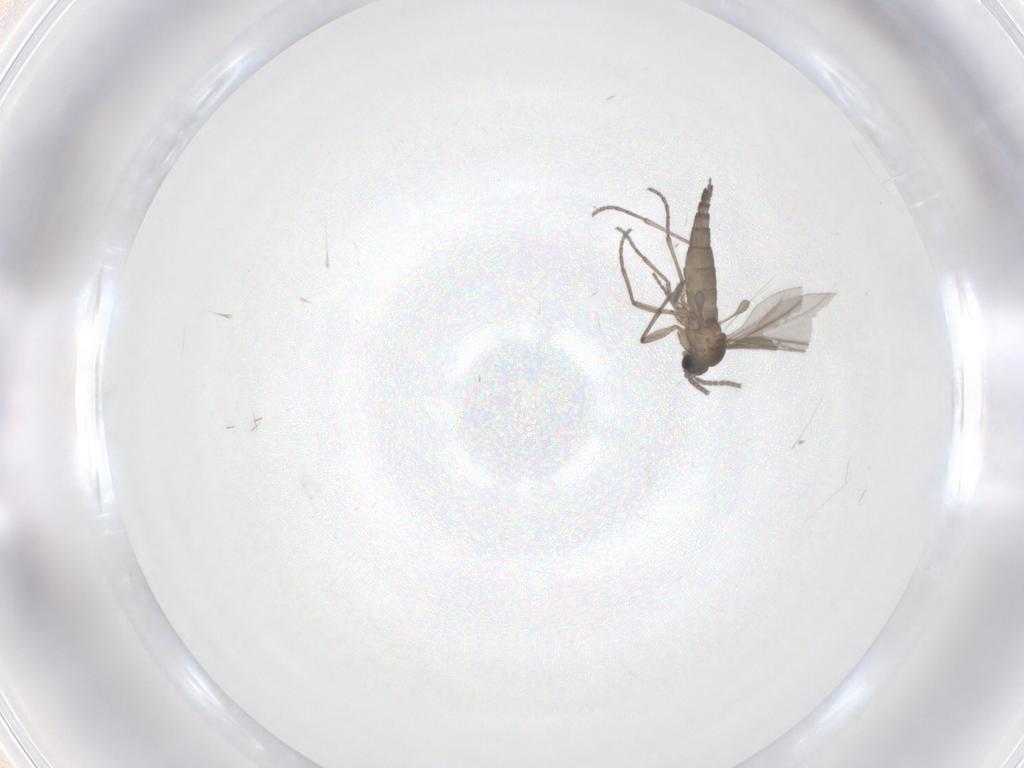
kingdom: Animalia
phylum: Arthropoda
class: Insecta
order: Diptera
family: Sciaridae
